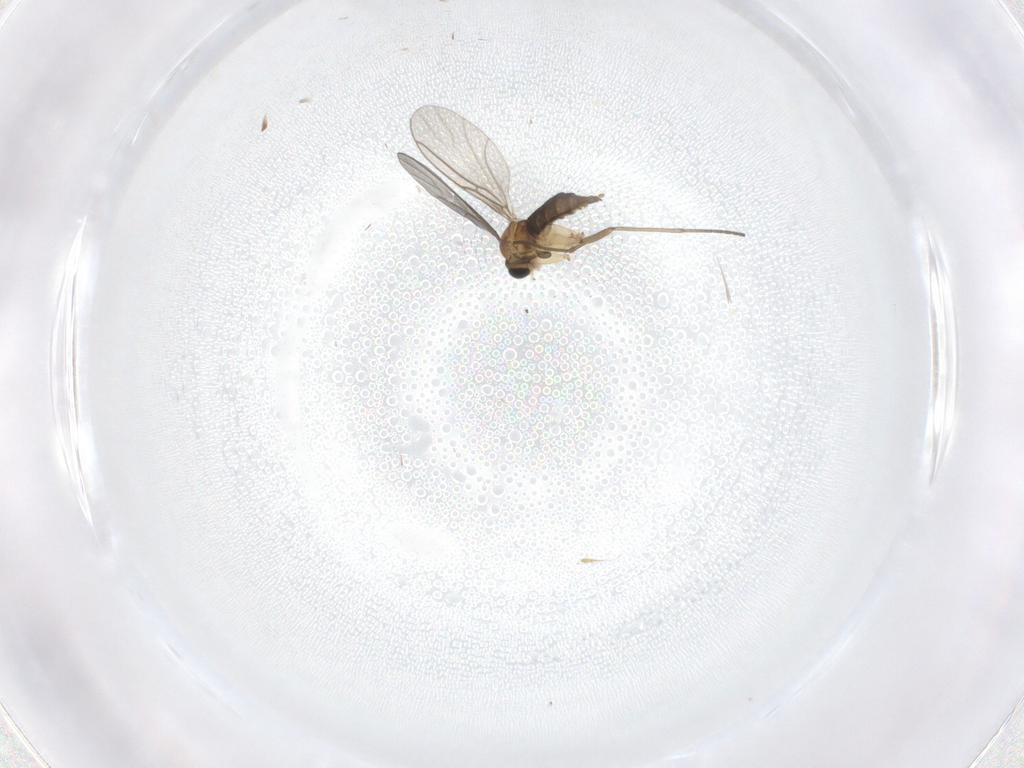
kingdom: Animalia
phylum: Arthropoda
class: Insecta
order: Diptera
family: Sciaridae
